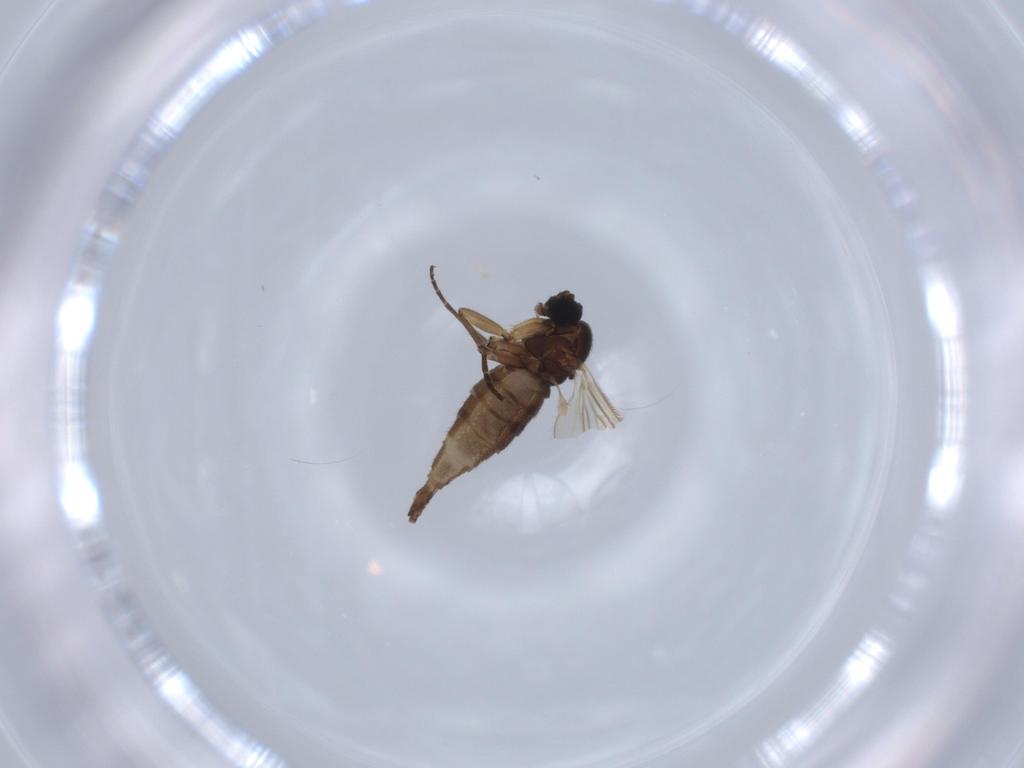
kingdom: Animalia
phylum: Arthropoda
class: Insecta
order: Diptera
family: Sciaridae
